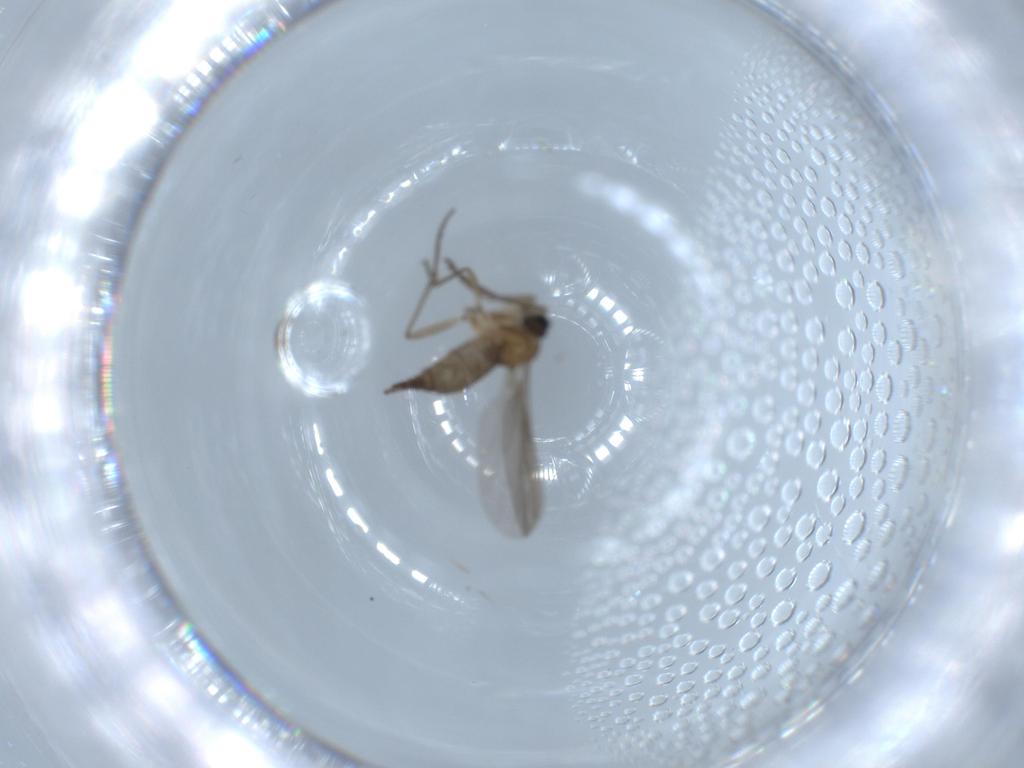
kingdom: Animalia
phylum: Arthropoda
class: Insecta
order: Diptera
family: Sciaridae
